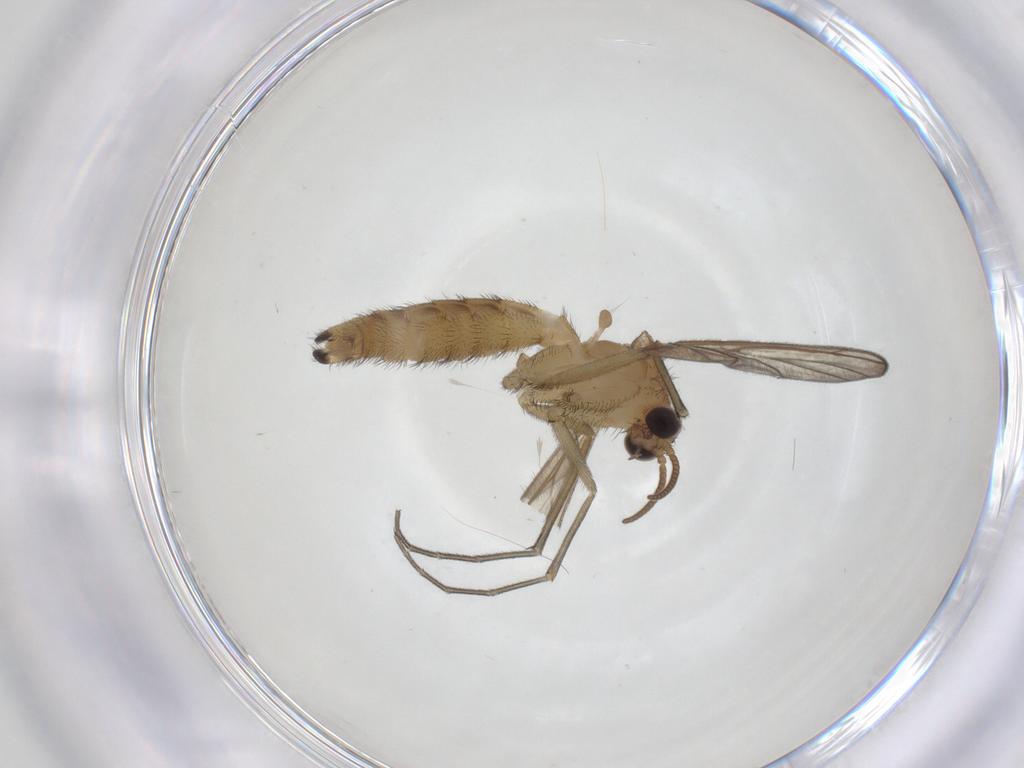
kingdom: Animalia
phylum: Arthropoda
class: Insecta
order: Diptera
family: Keroplatidae
